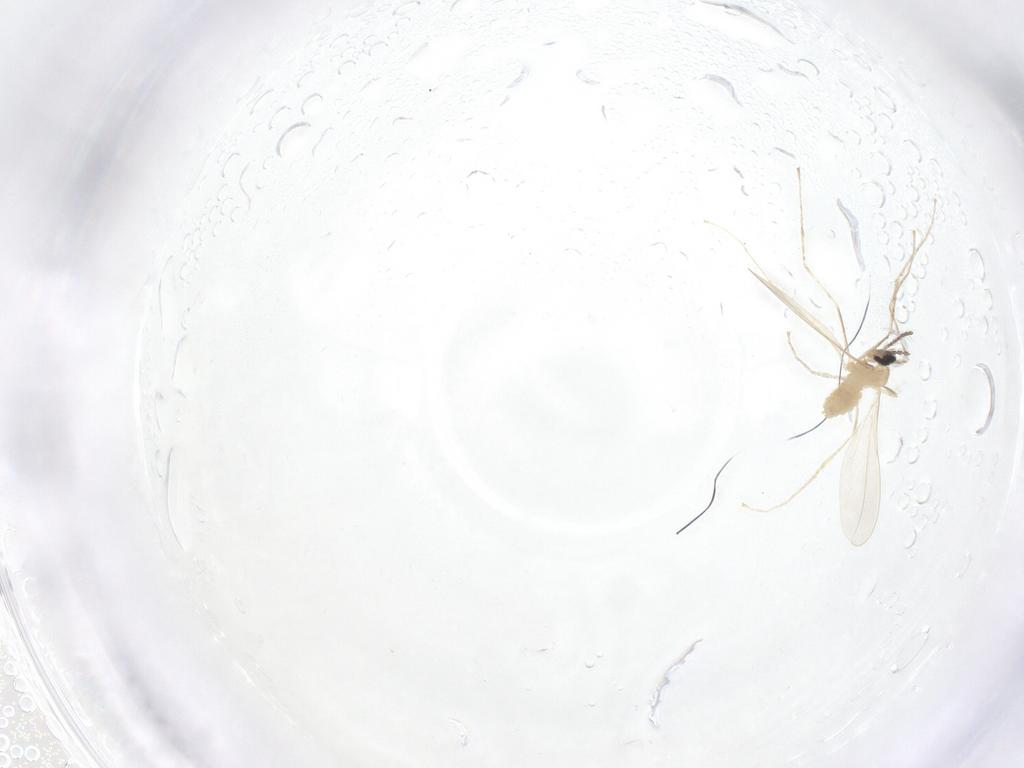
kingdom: Animalia
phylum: Arthropoda
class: Insecta
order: Diptera
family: Cecidomyiidae
